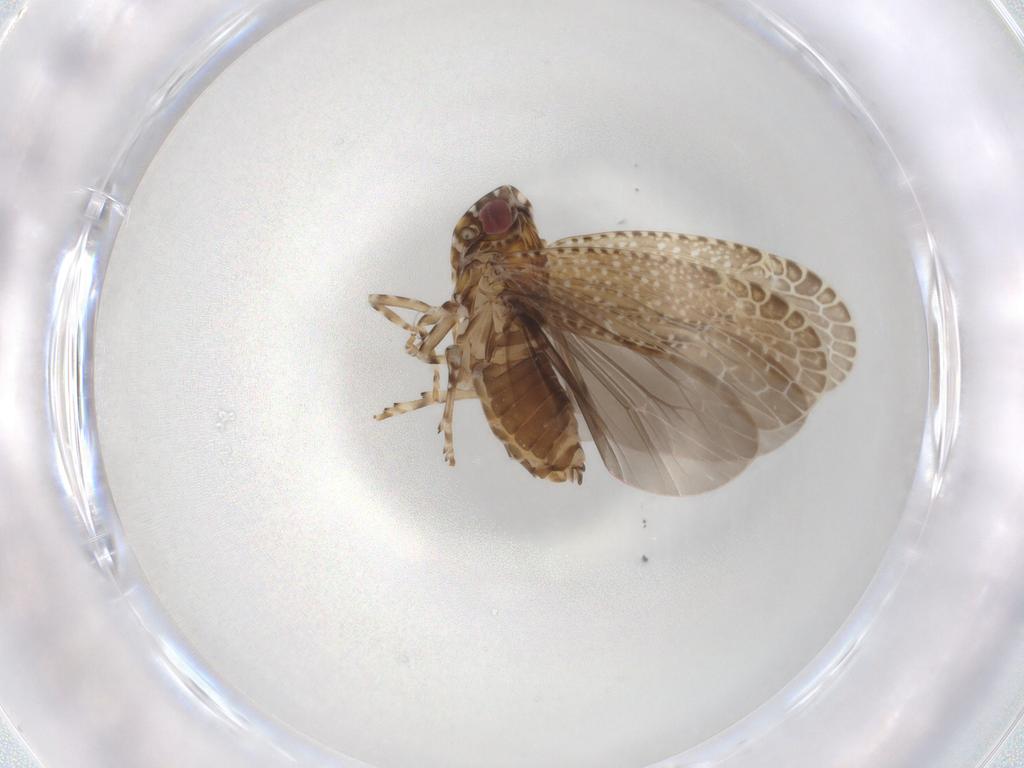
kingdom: Animalia
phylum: Arthropoda
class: Insecta
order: Hemiptera
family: Achilidae
